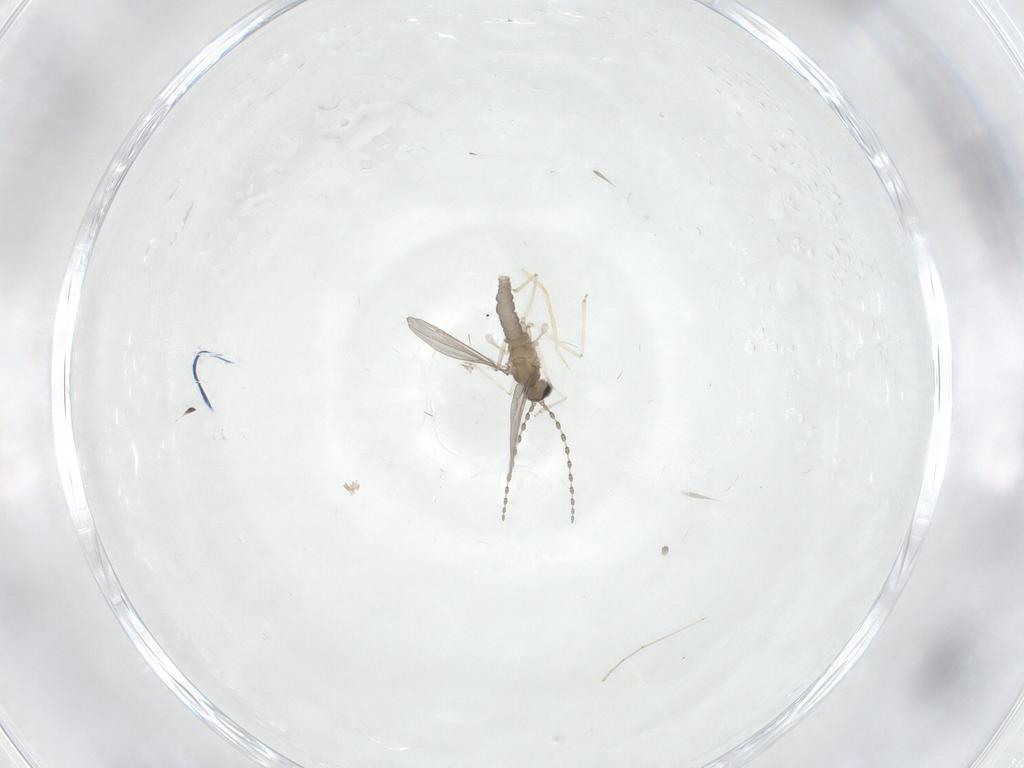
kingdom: Animalia
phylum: Arthropoda
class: Insecta
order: Diptera
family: Cecidomyiidae
